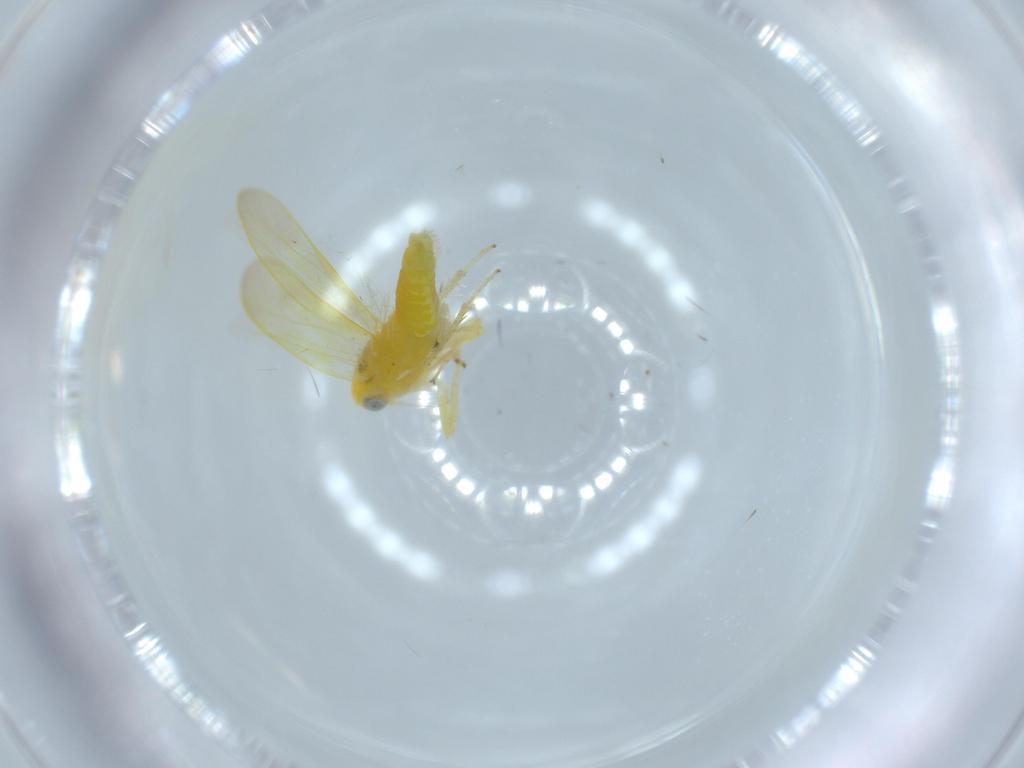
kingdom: Animalia
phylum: Arthropoda
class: Insecta
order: Hemiptera
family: Cicadellidae
